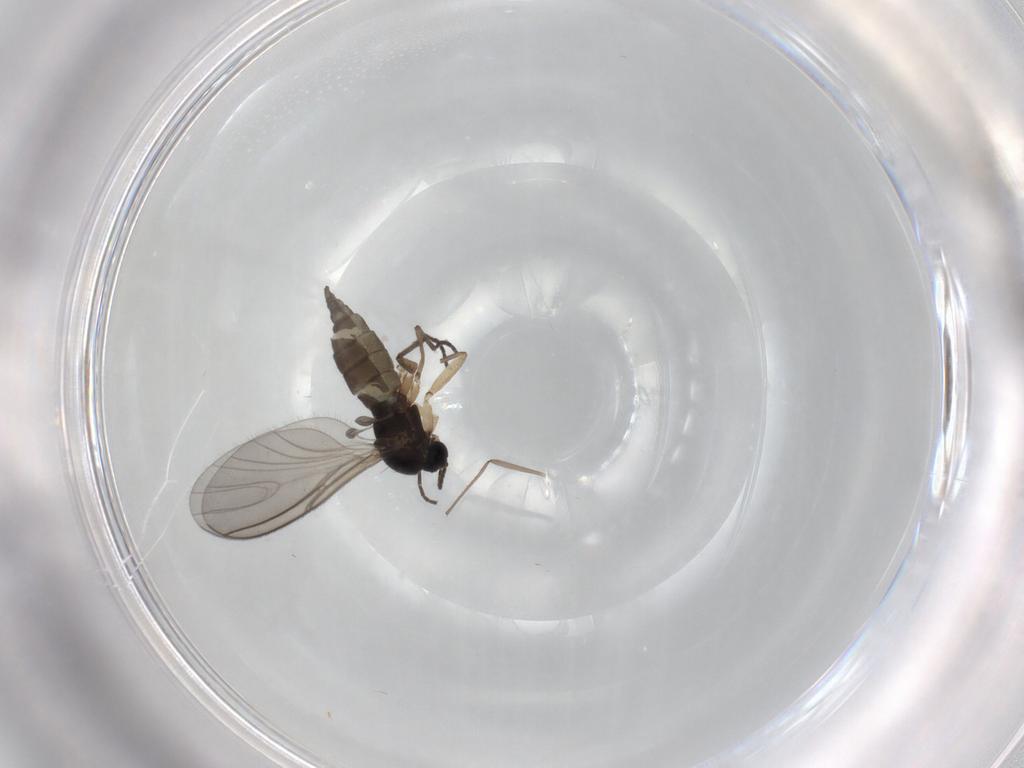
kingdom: Animalia
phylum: Arthropoda
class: Insecta
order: Diptera
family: Sciaridae
